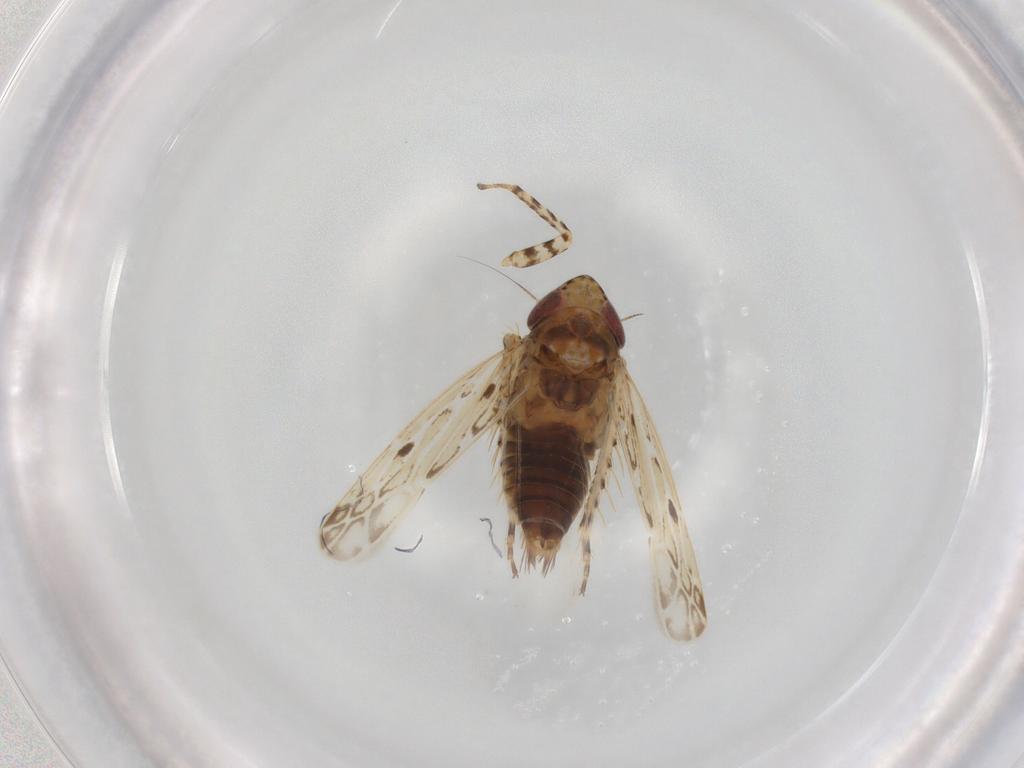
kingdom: Animalia
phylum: Arthropoda
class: Insecta
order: Hemiptera
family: Cicadellidae
